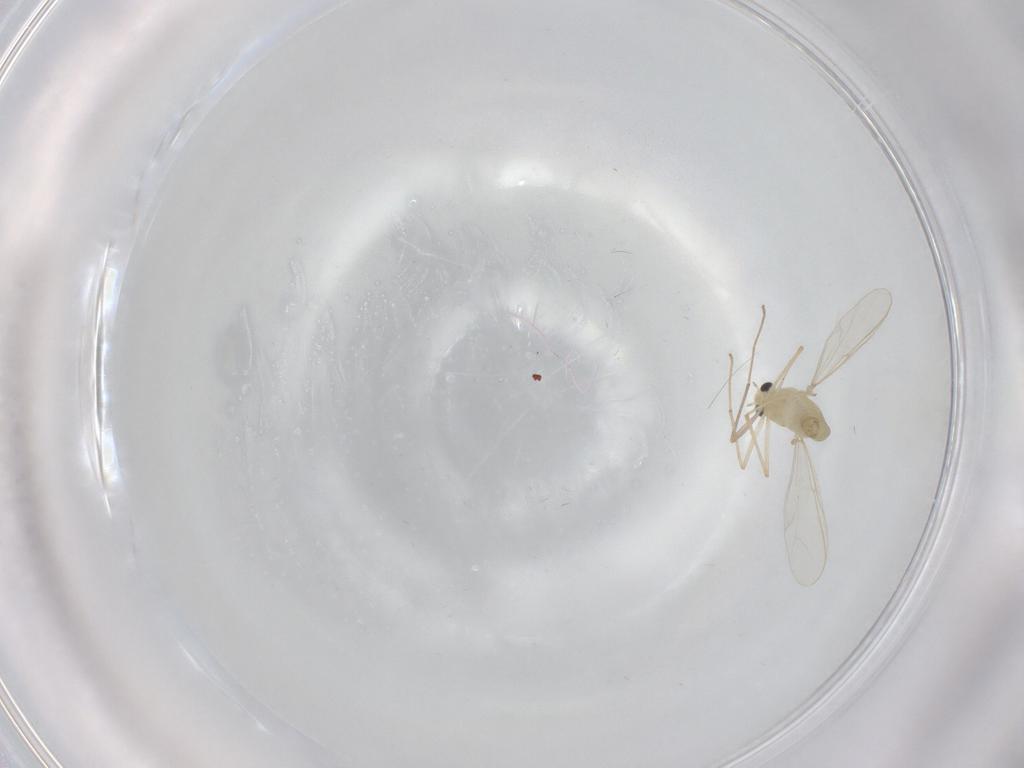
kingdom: Animalia
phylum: Arthropoda
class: Insecta
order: Diptera
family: Chironomidae
